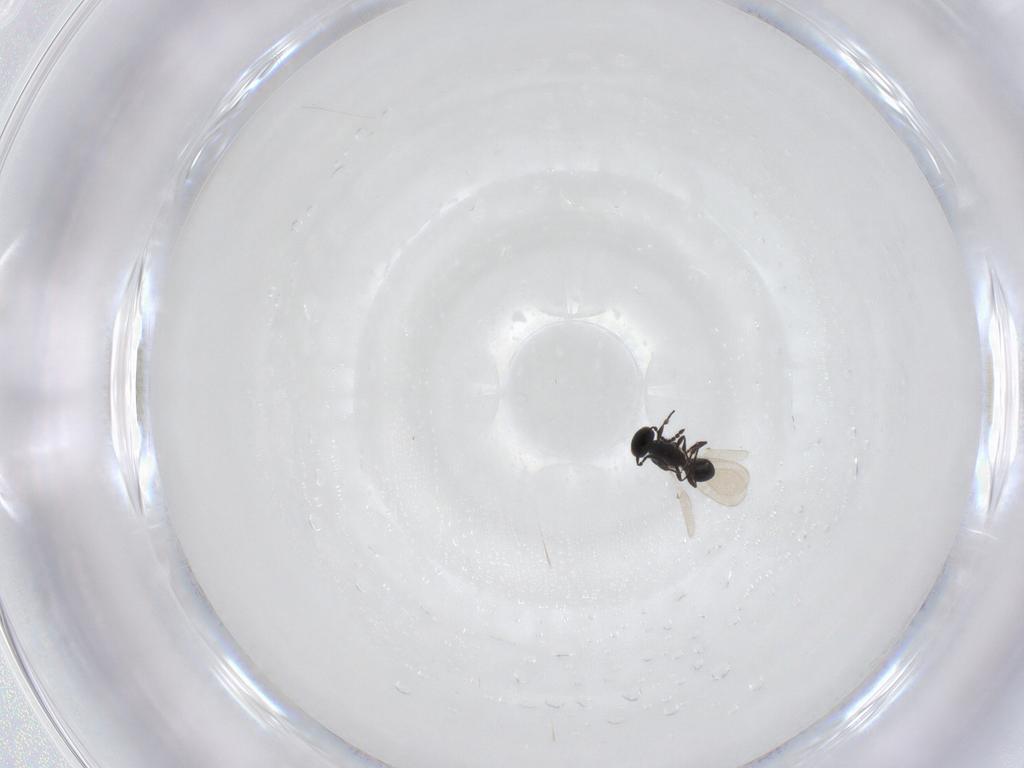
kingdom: Animalia
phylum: Arthropoda
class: Insecta
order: Hymenoptera
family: Platygastridae
